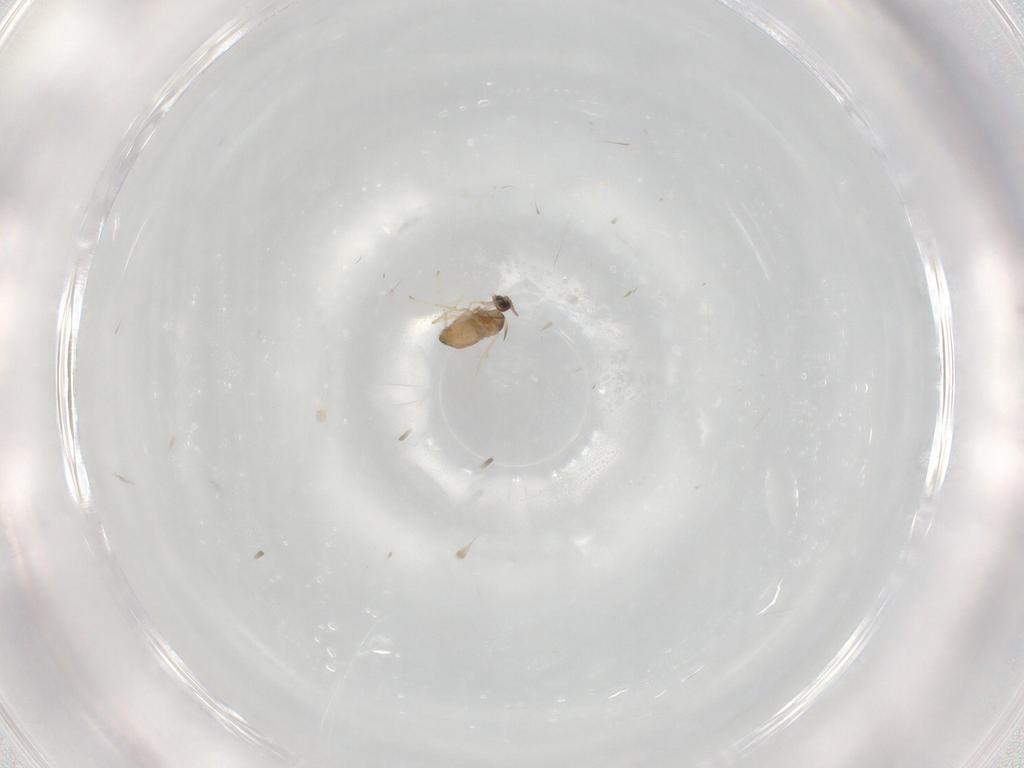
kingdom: Animalia
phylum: Arthropoda
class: Insecta
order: Diptera
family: Cecidomyiidae
